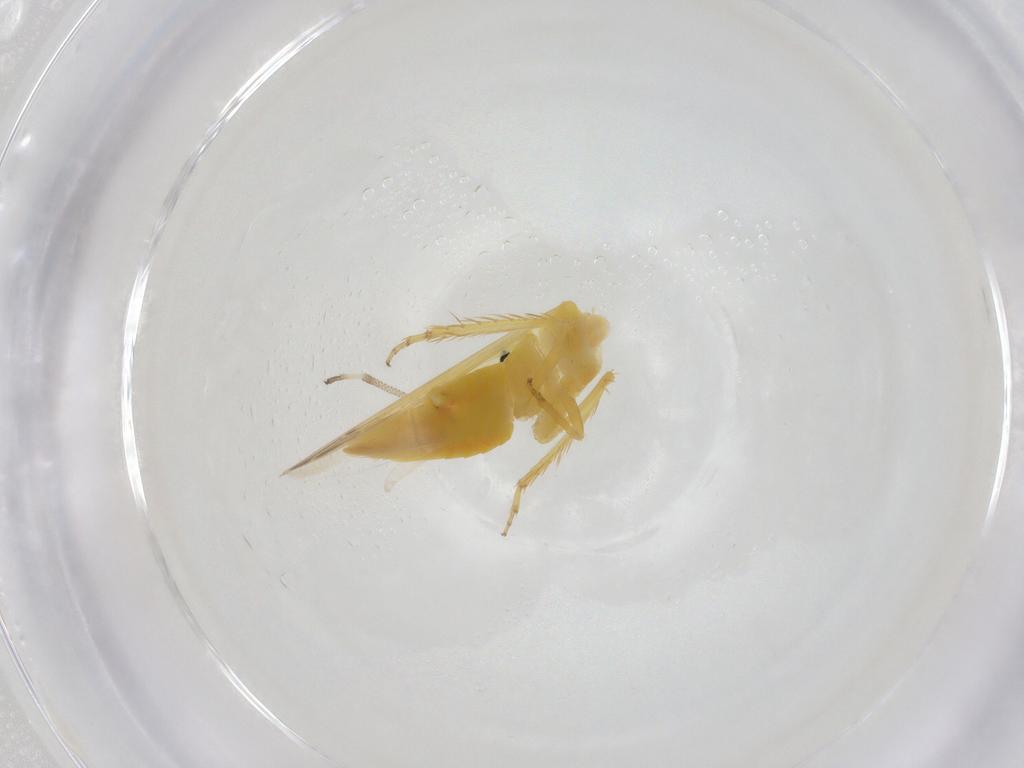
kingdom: Animalia
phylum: Arthropoda
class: Insecta
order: Hemiptera
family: Cicadellidae
